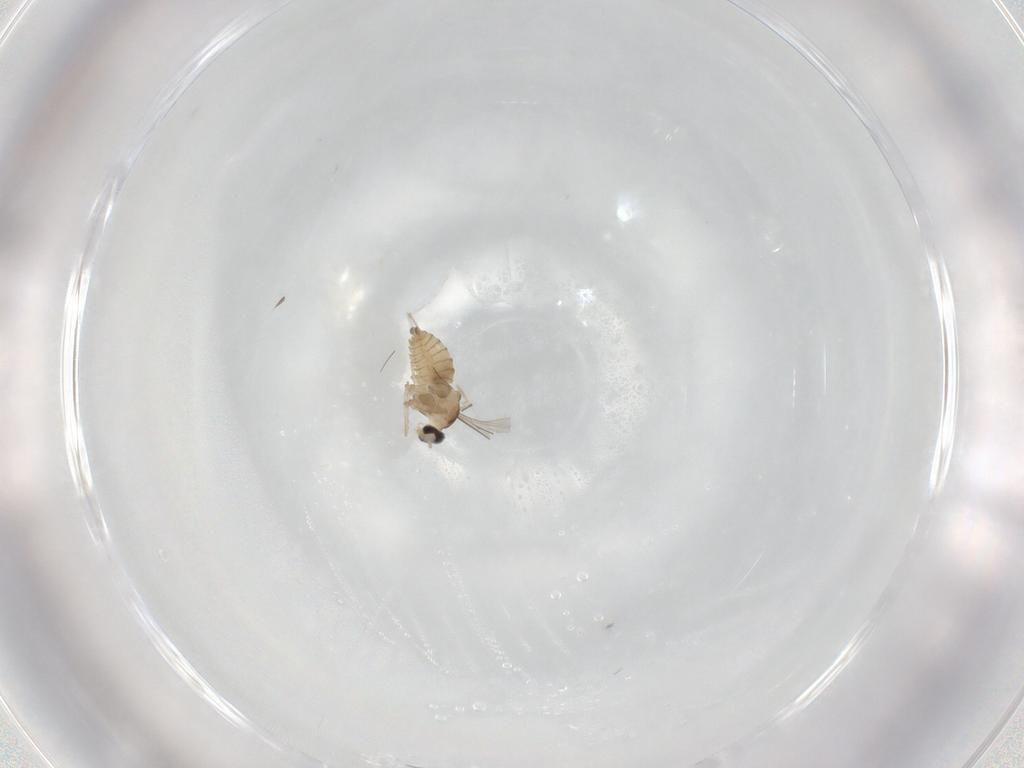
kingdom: Animalia
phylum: Arthropoda
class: Insecta
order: Diptera
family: Cecidomyiidae
